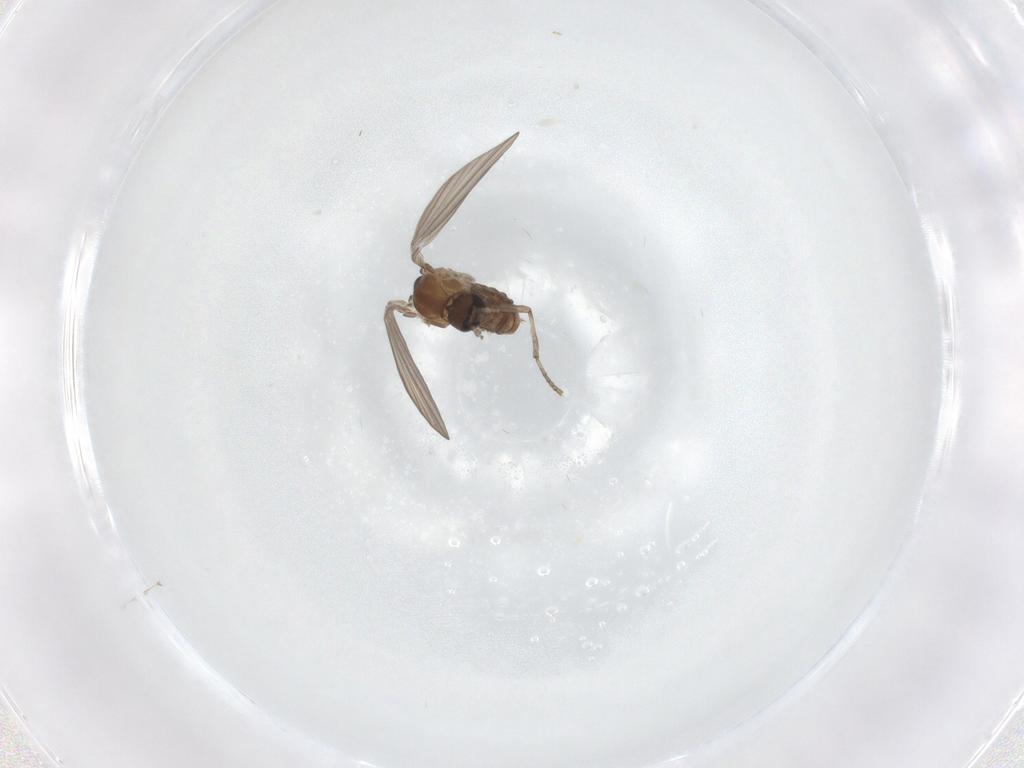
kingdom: Animalia
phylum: Arthropoda
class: Insecta
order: Diptera
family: Psychodidae
